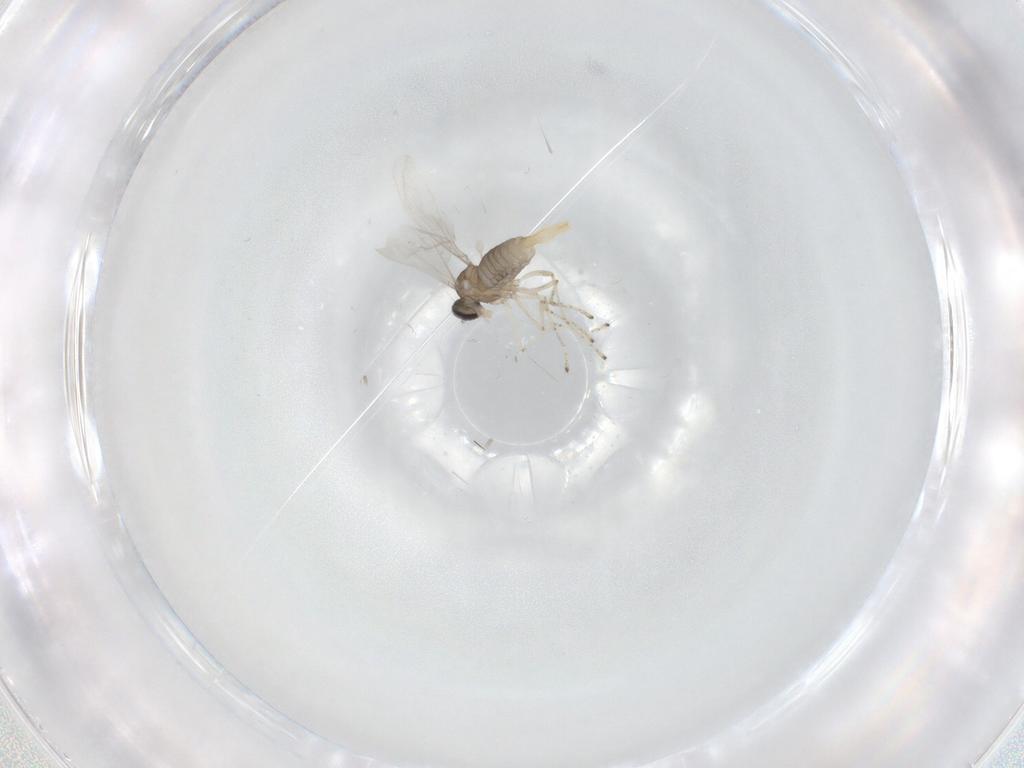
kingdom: Animalia
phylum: Arthropoda
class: Insecta
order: Diptera
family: Cecidomyiidae
